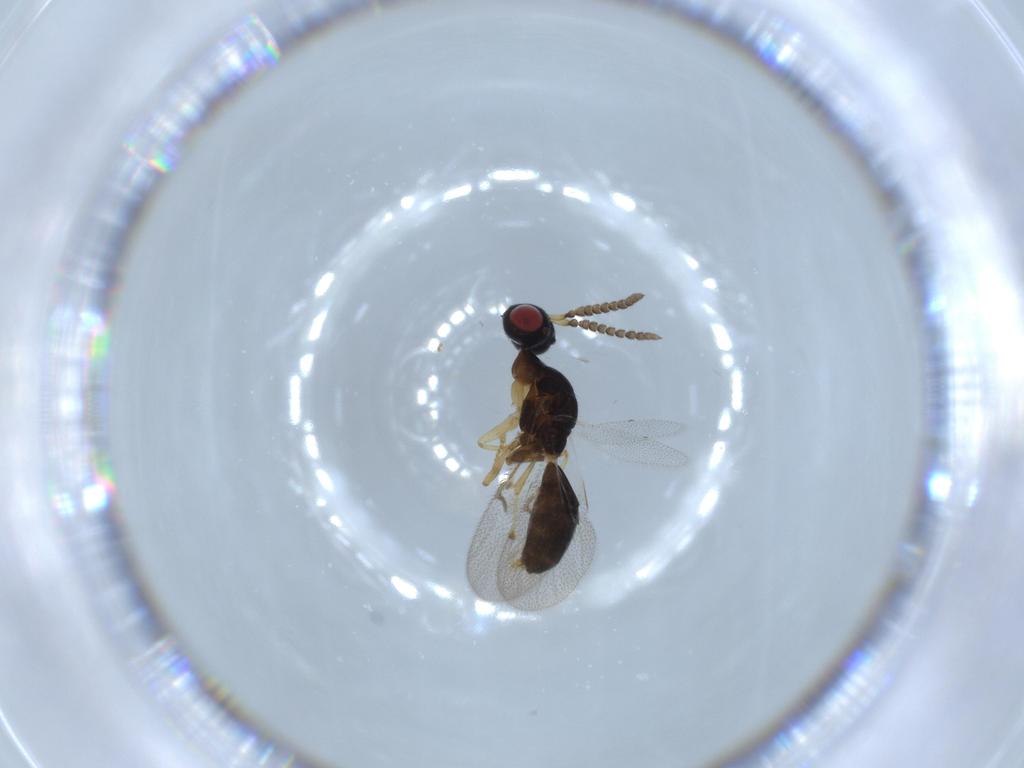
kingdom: Animalia
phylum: Arthropoda
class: Insecta
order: Hymenoptera
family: Agaonidae
